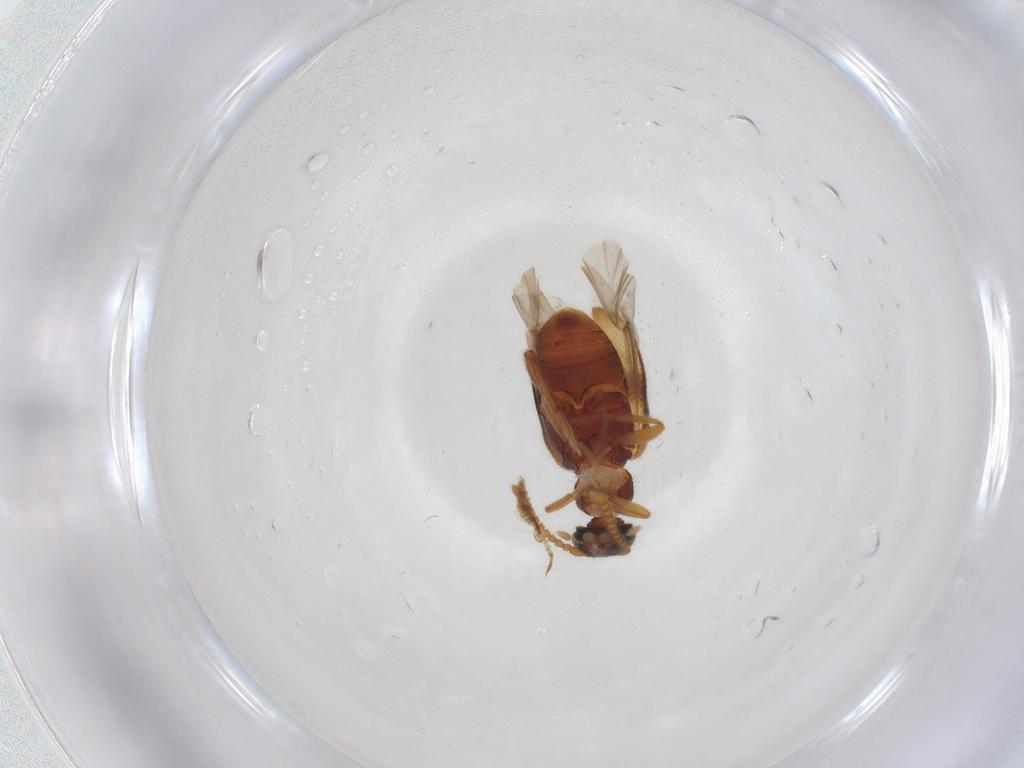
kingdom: Animalia
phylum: Arthropoda
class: Insecta
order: Coleoptera
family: Aderidae
